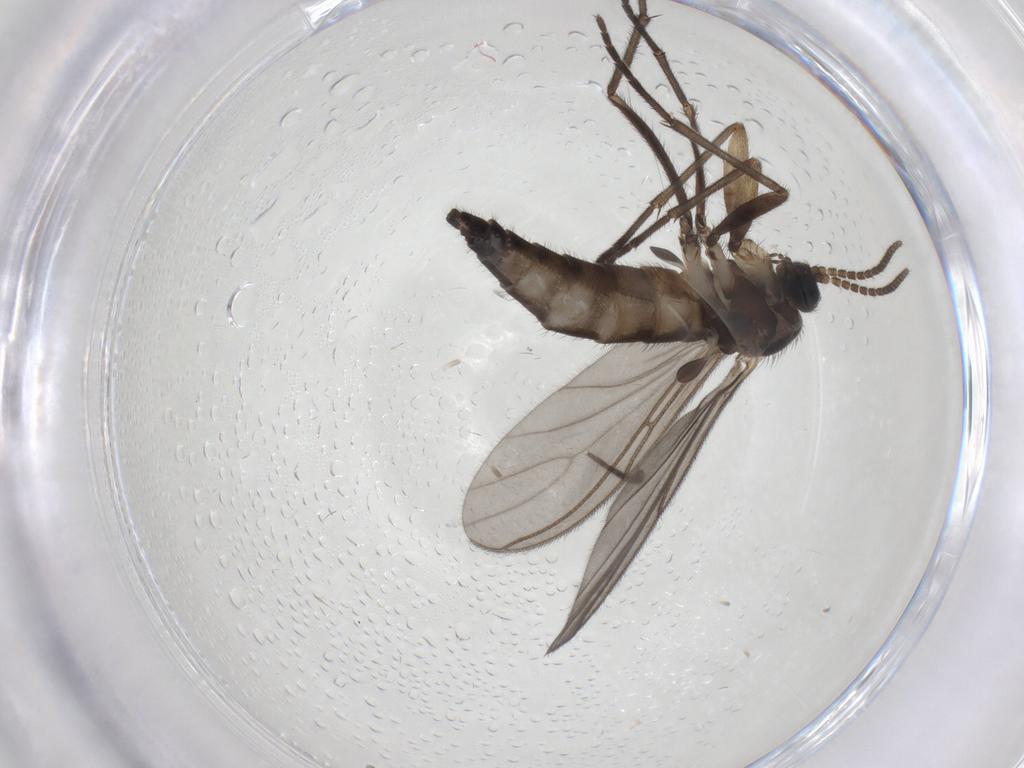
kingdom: Animalia
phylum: Arthropoda
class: Insecta
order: Diptera
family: Sciaridae
